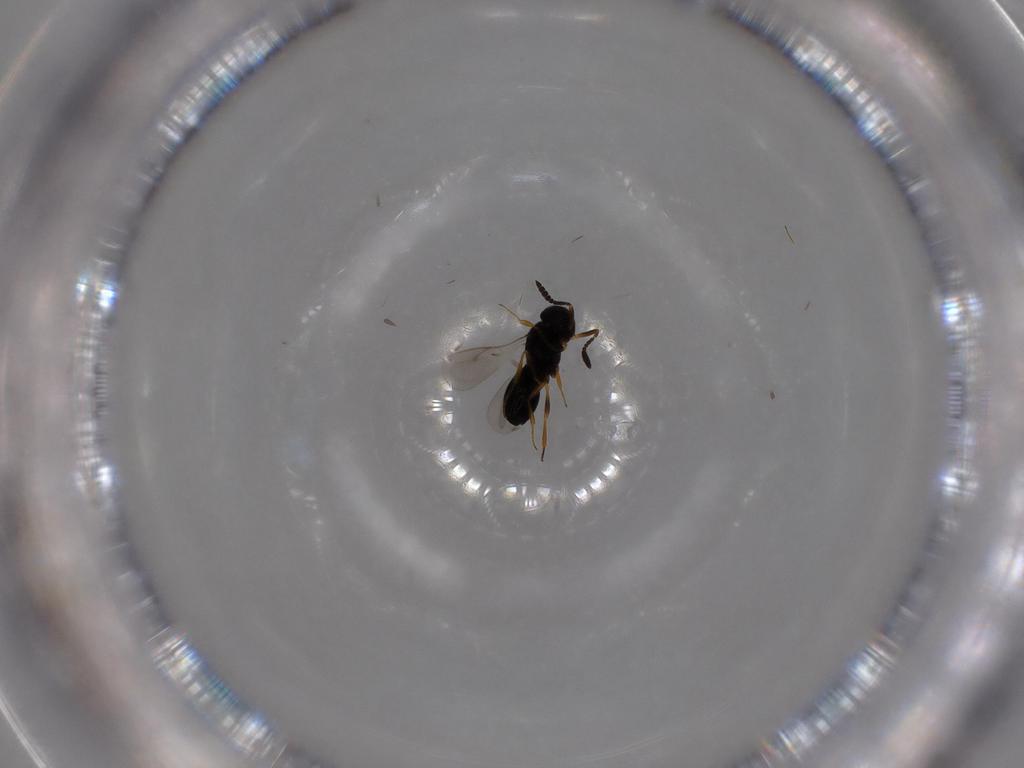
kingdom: Animalia
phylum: Arthropoda
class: Insecta
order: Hymenoptera
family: Scelionidae
